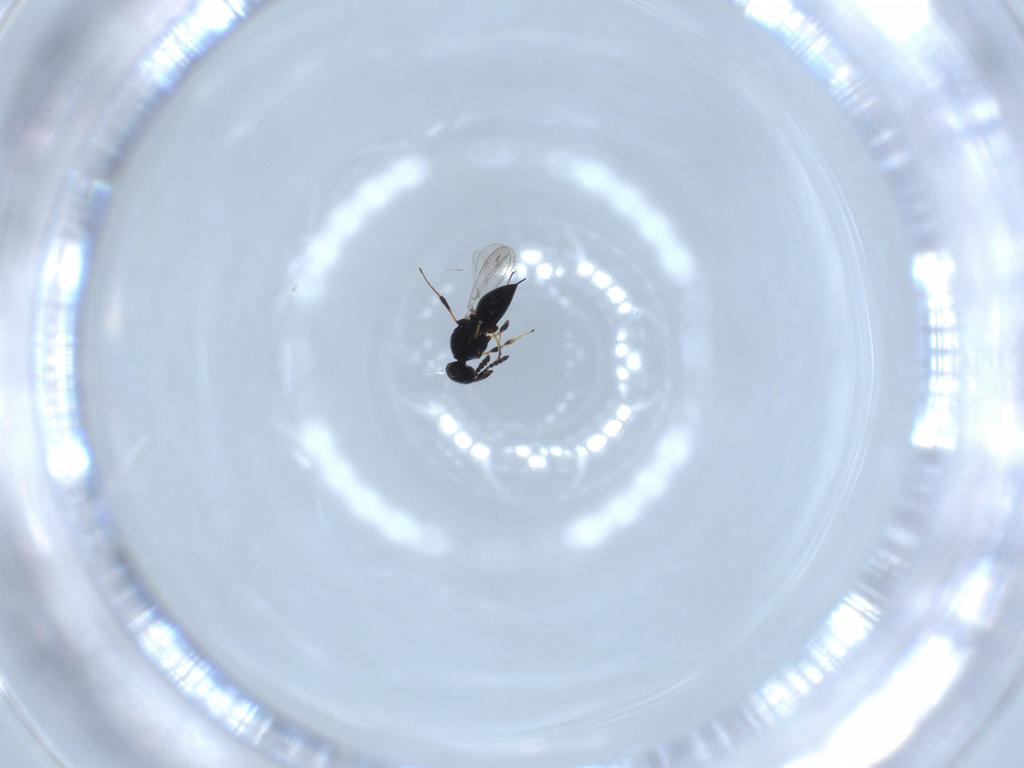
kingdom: Animalia
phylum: Arthropoda
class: Insecta
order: Hymenoptera
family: Platygastridae
